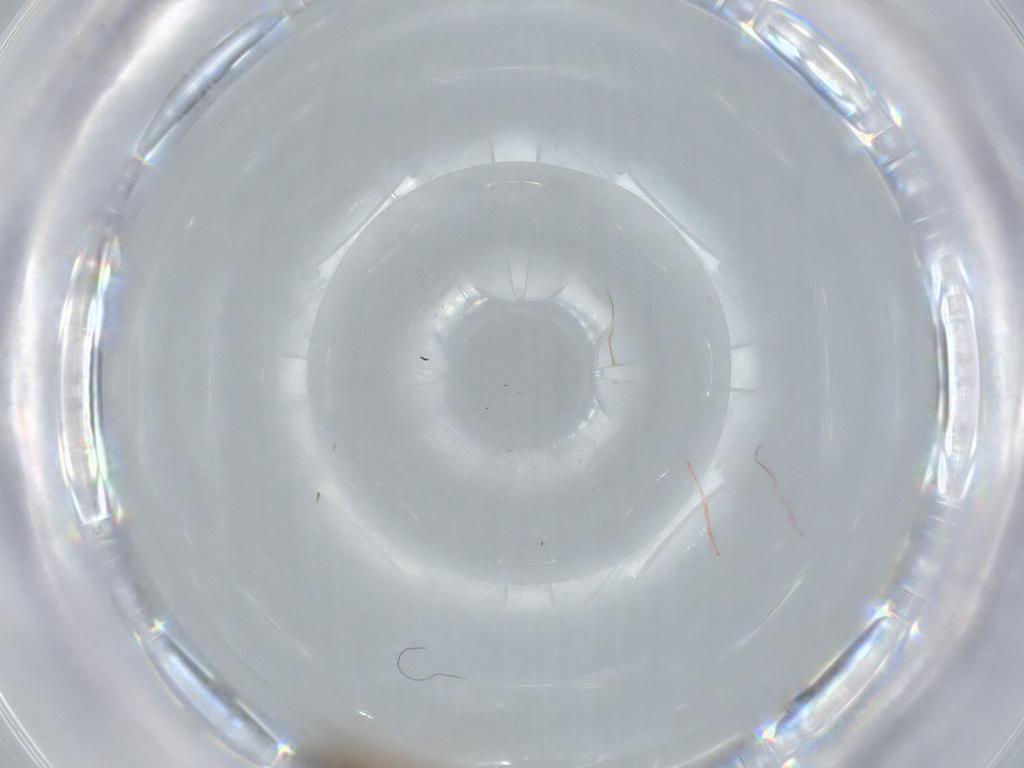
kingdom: Animalia
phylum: Arthropoda
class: Insecta
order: Hymenoptera
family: Scelionidae
